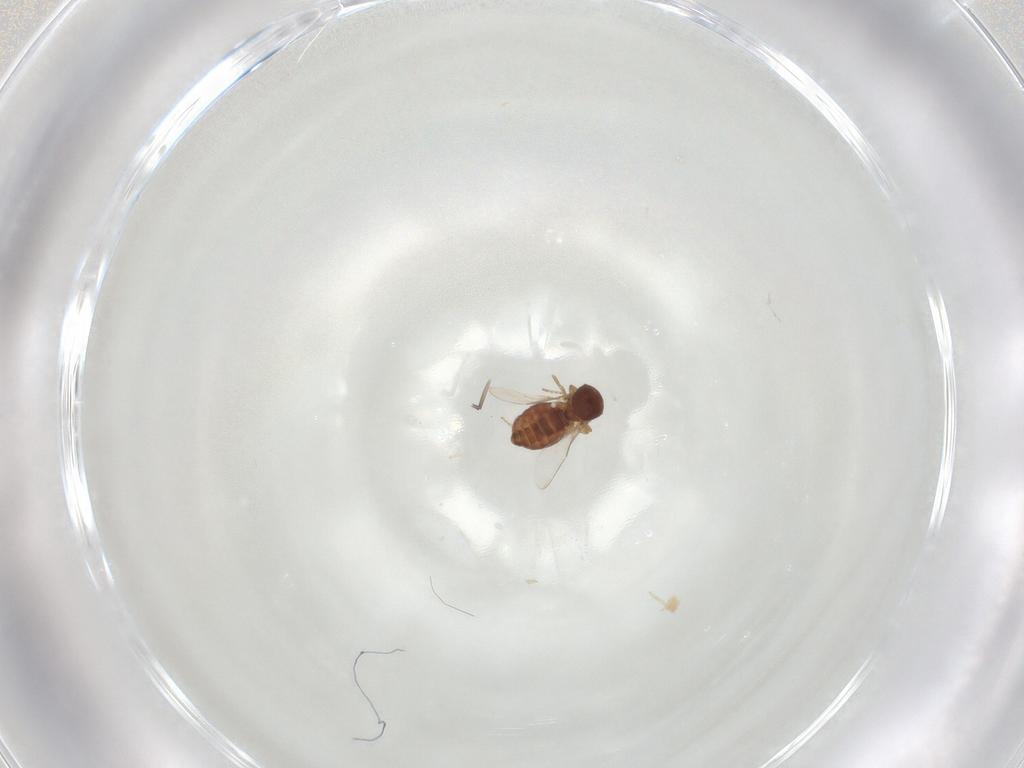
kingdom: Animalia
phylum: Arthropoda
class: Insecta
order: Diptera
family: Ceratopogonidae
